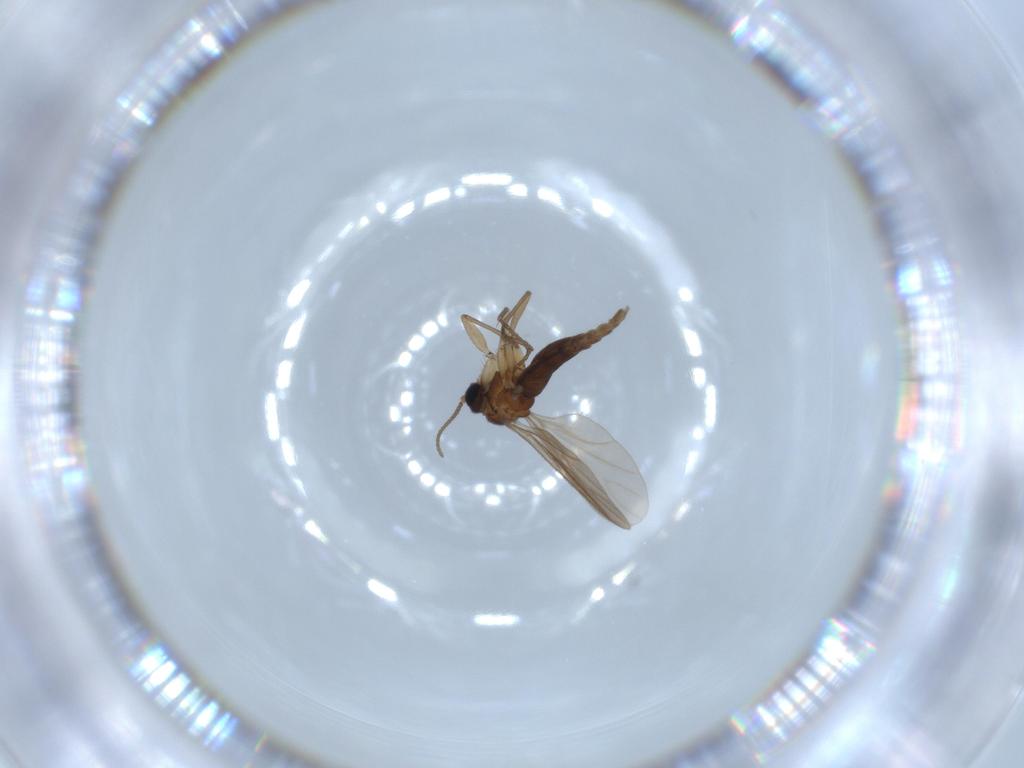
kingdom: Animalia
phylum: Arthropoda
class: Insecta
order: Diptera
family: Sciaridae
